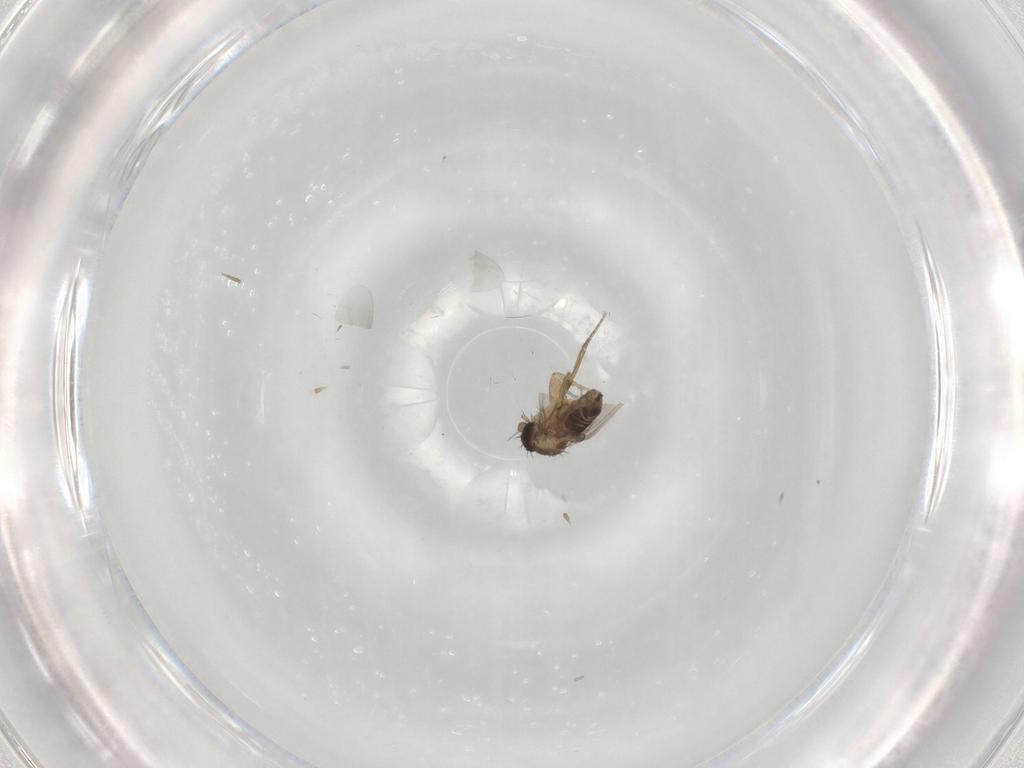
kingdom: Animalia
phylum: Arthropoda
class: Insecta
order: Diptera
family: Phoridae
